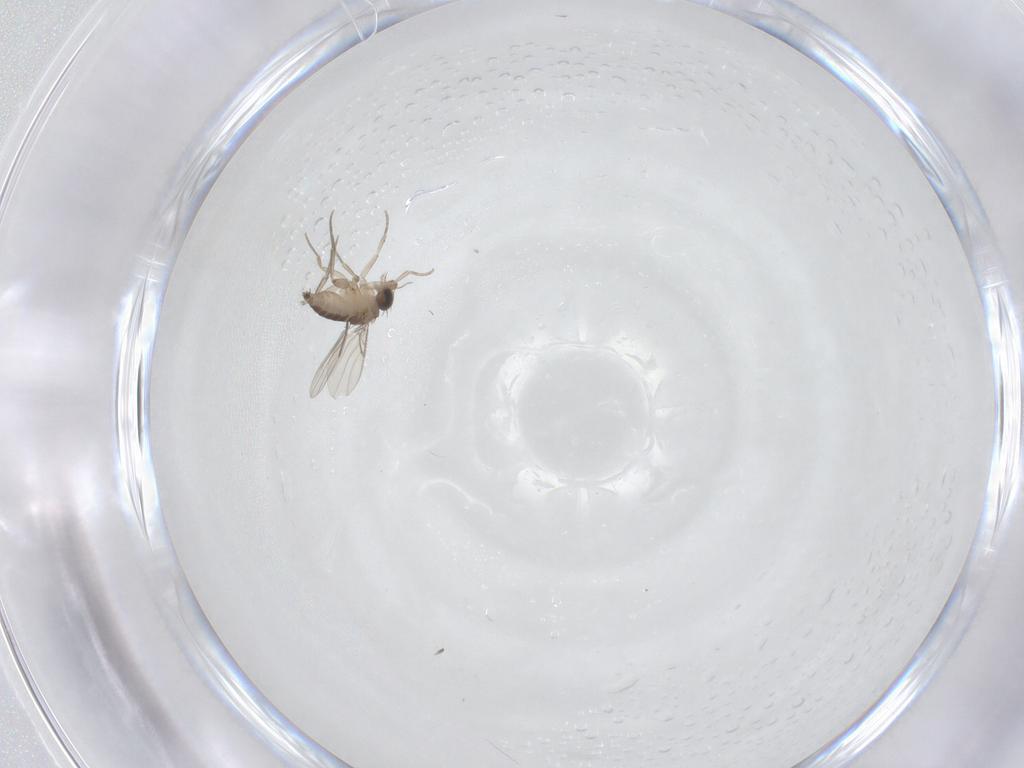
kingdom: Animalia
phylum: Arthropoda
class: Insecta
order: Diptera
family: Phoridae
